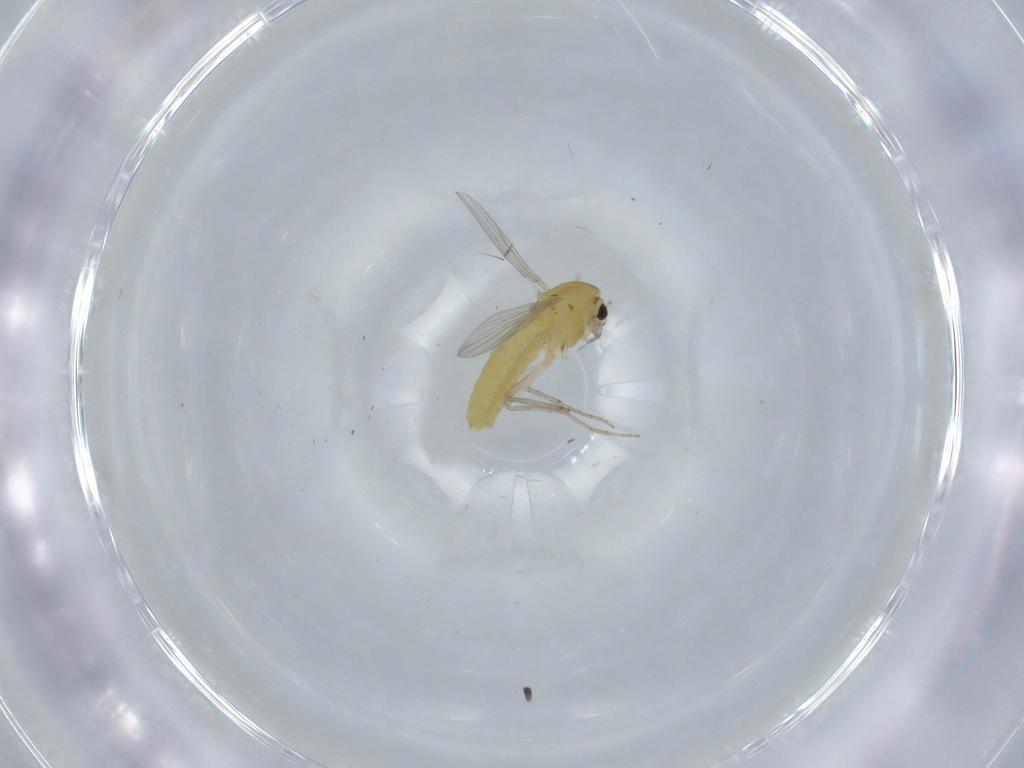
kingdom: Animalia
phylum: Arthropoda
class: Insecta
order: Diptera
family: Chironomidae
